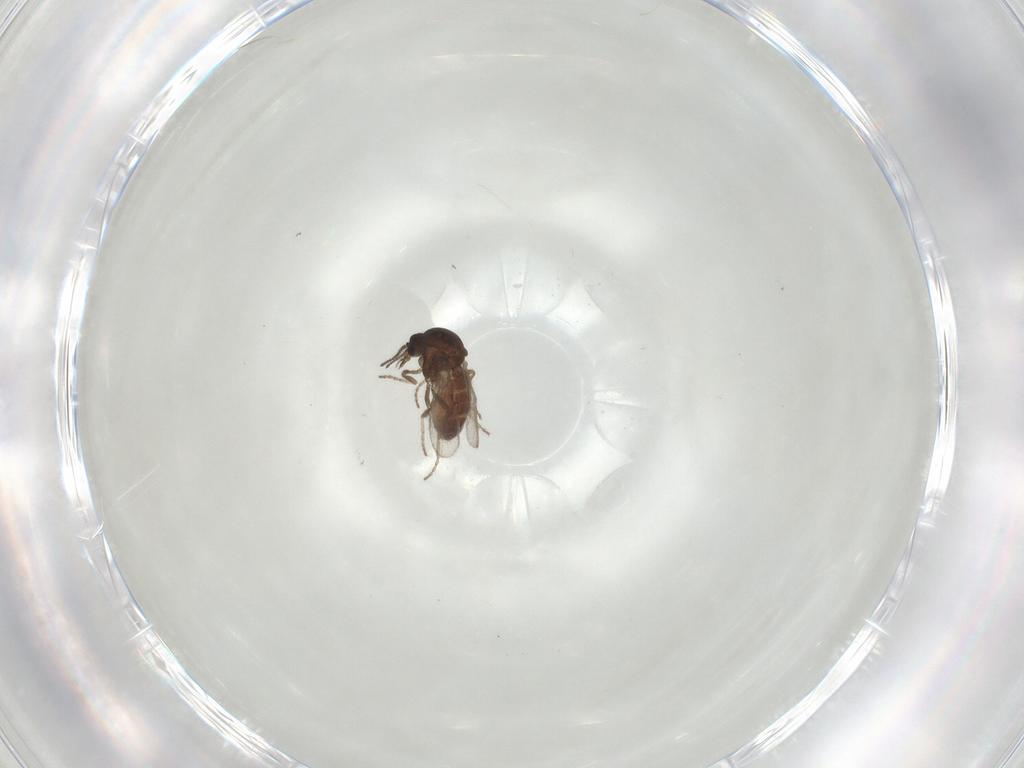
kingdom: Animalia
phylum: Arthropoda
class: Insecta
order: Diptera
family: Ceratopogonidae
